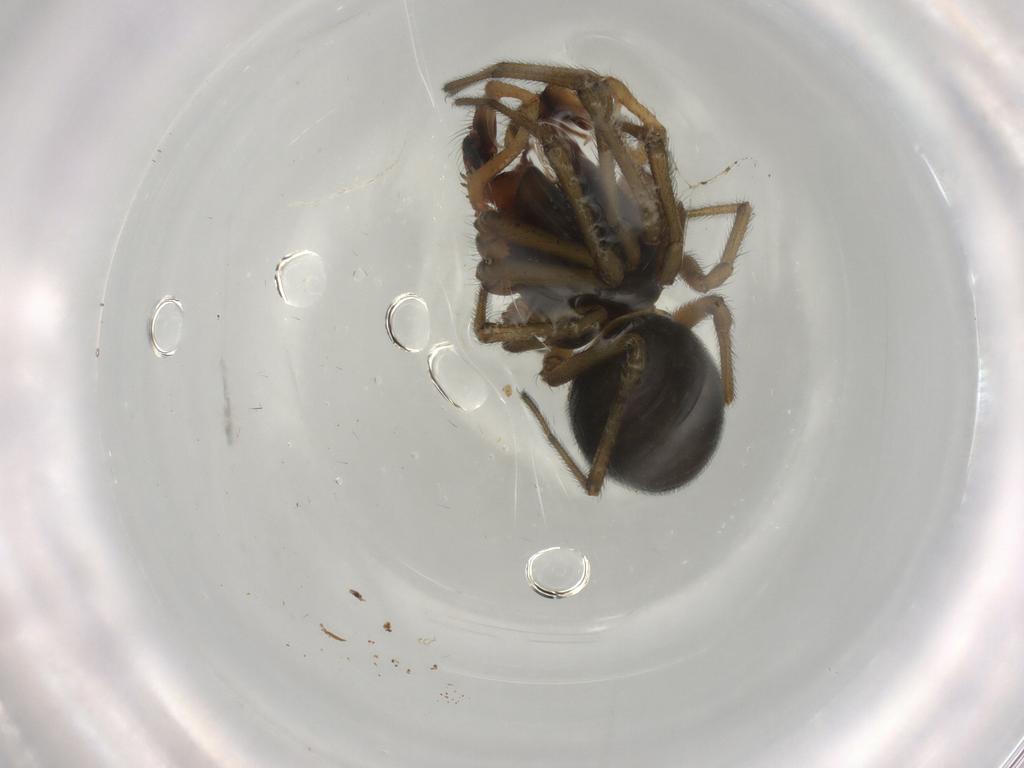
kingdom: Animalia
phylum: Arthropoda
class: Arachnida
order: Araneae
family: Linyphiidae
